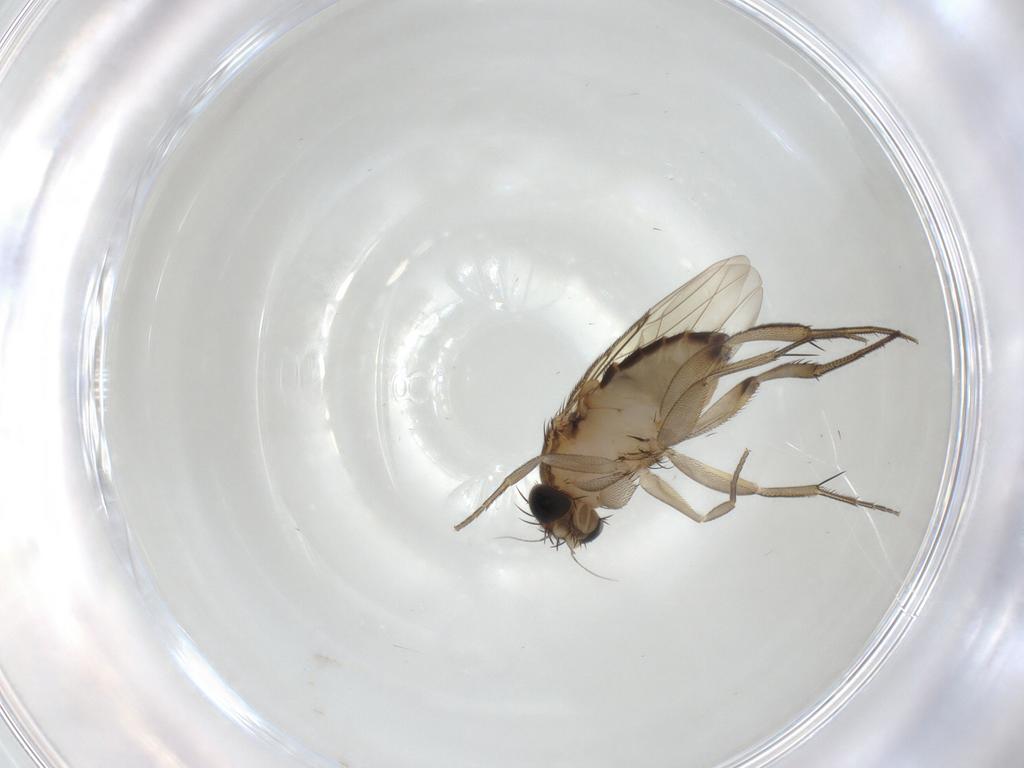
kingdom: Animalia
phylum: Arthropoda
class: Insecta
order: Diptera
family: Phoridae
